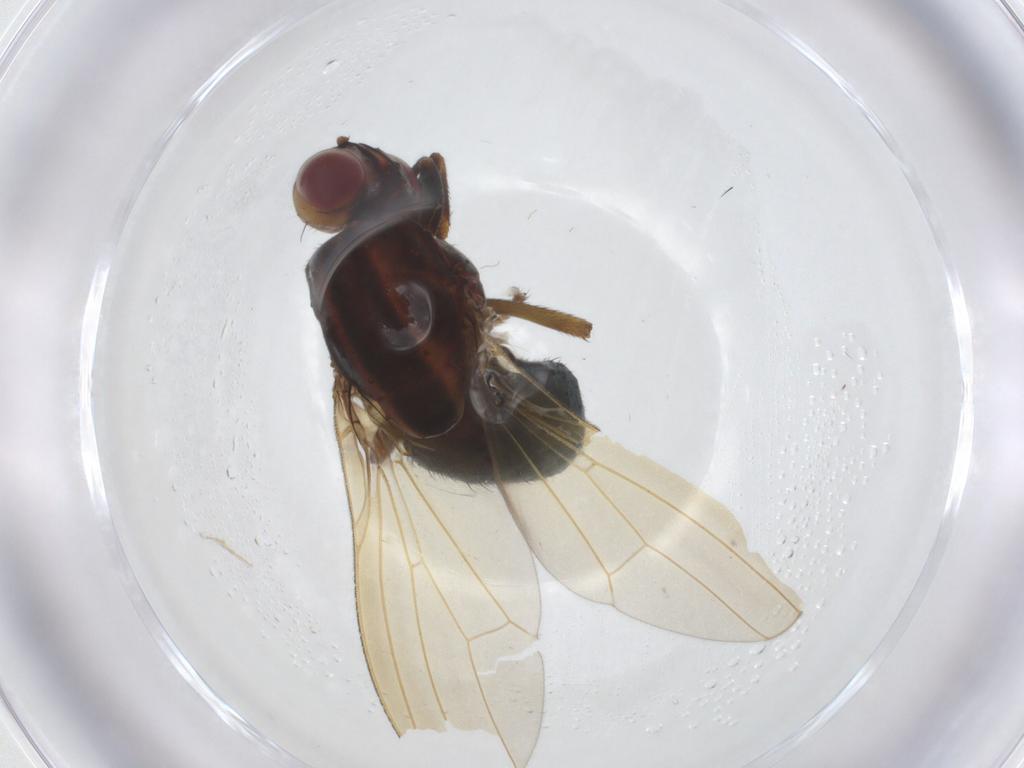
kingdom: Animalia
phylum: Arthropoda
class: Insecta
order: Diptera
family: Lauxaniidae
